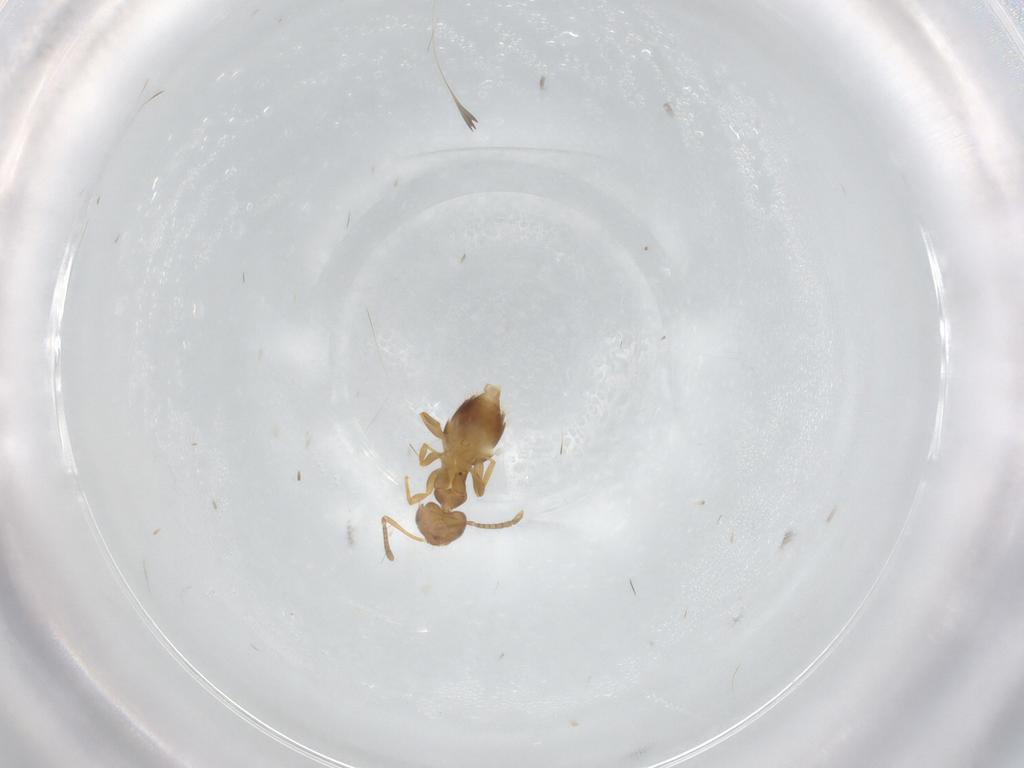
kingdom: Animalia
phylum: Arthropoda
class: Insecta
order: Hymenoptera
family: Formicidae
